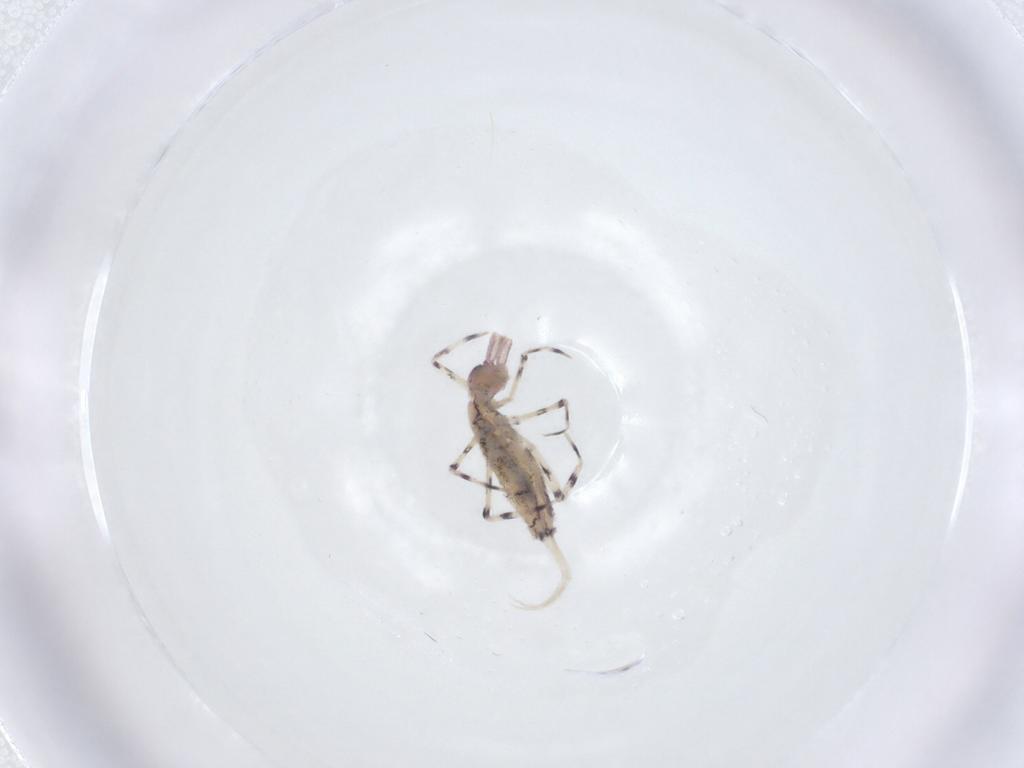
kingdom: Animalia
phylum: Arthropoda
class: Collembola
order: Entomobryomorpha
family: Entomobryidae
